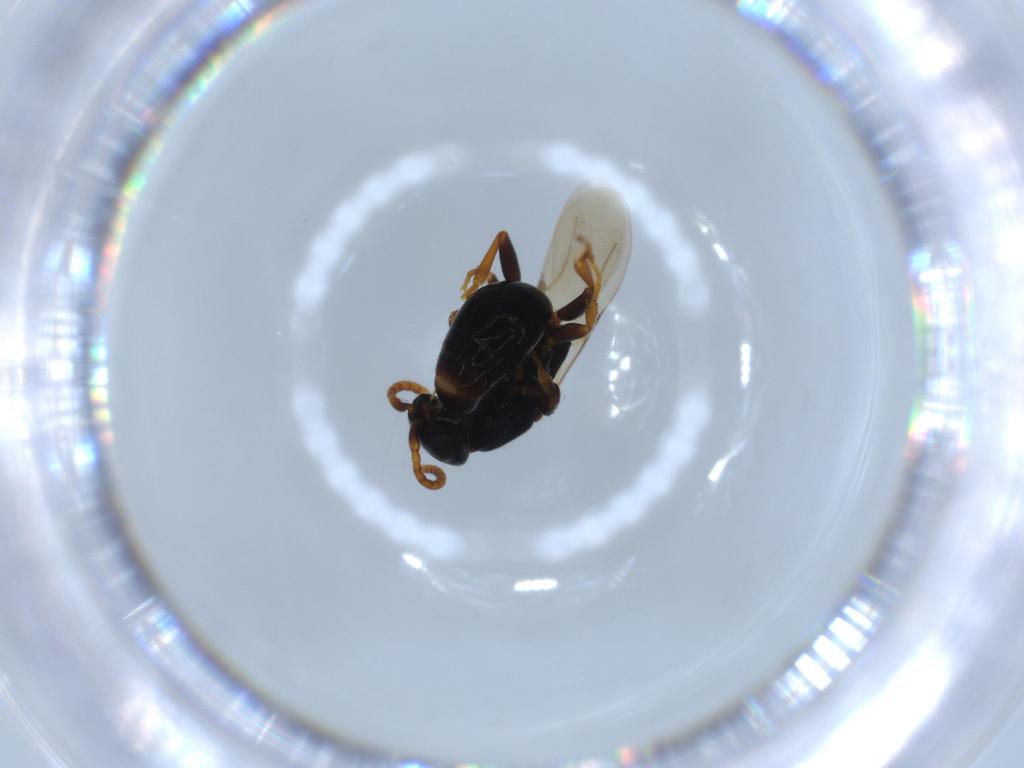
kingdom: Animalia
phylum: Arthropoda
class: Insecta
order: Hymenoptera
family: Bethylidae
